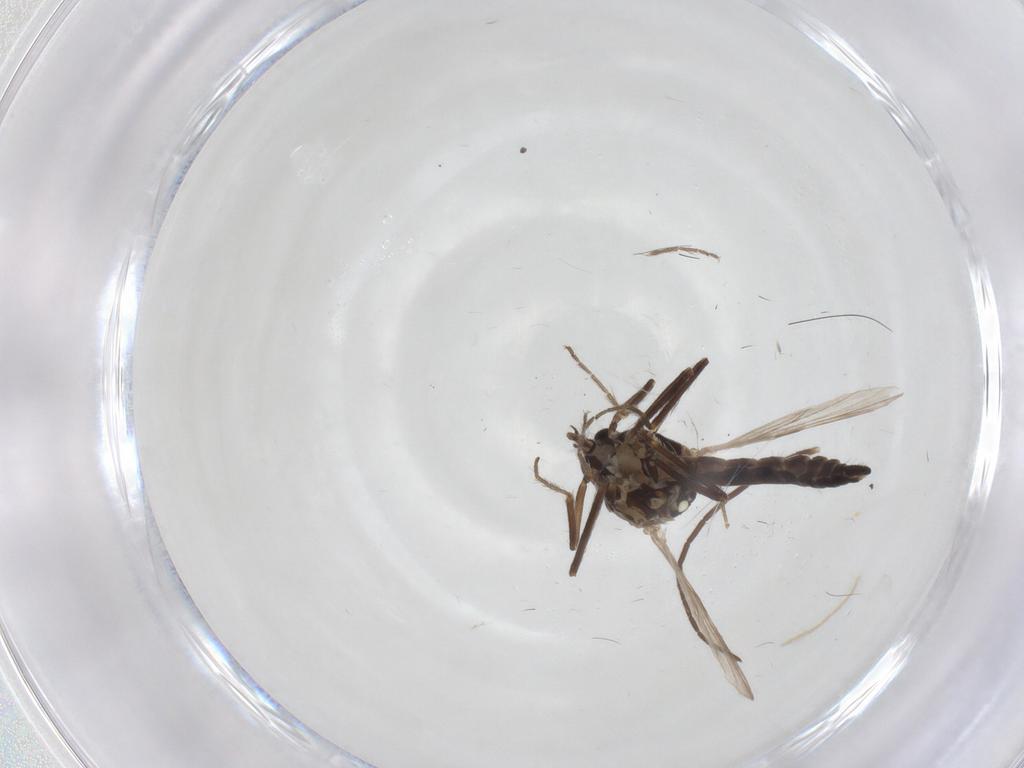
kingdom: Animalia
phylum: Arthropoda
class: Insecta
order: Diptera
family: Ceratopogonidae
